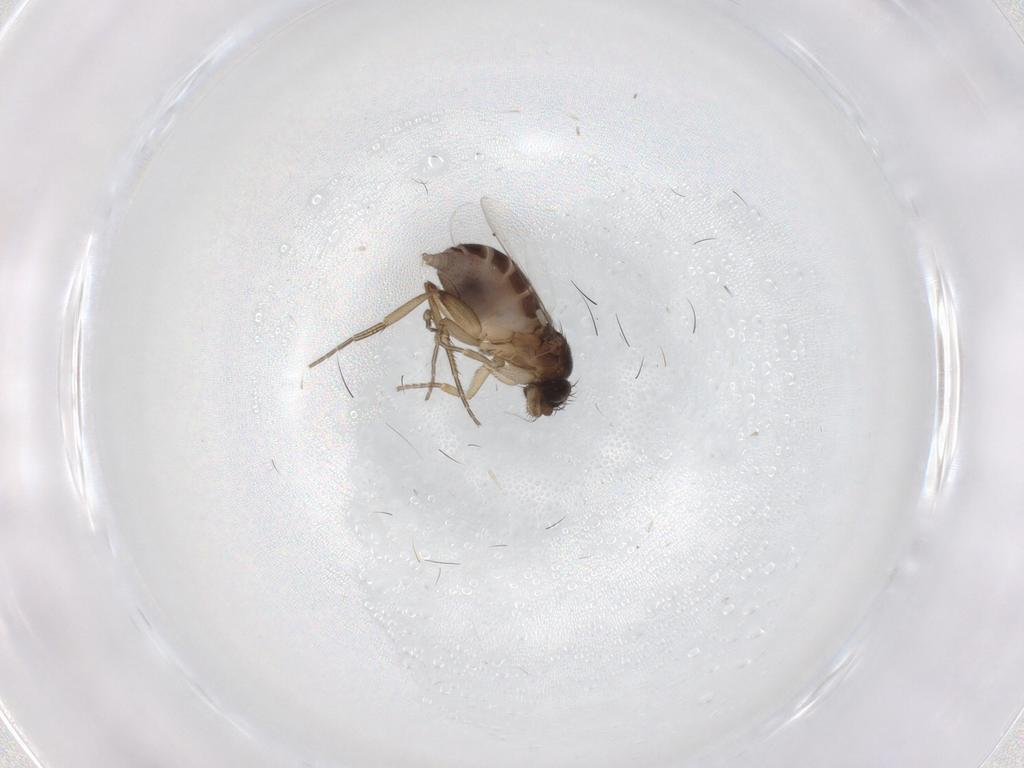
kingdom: Animalia
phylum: Arthropoda
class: Insecta
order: Diptera
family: Phoridae
